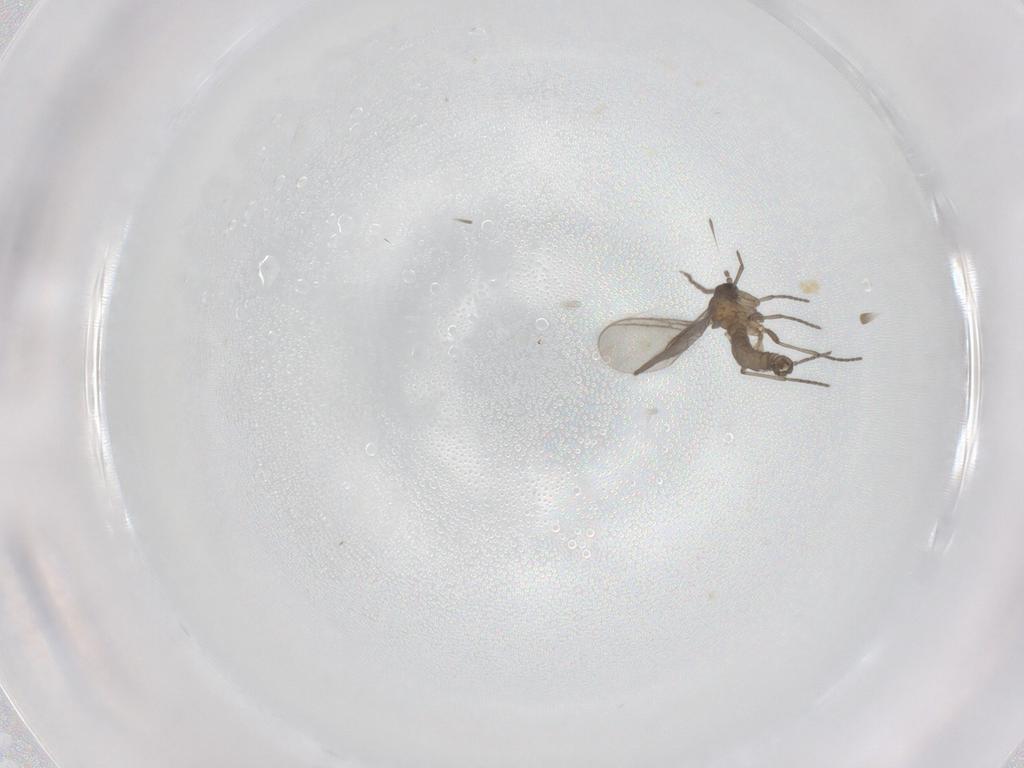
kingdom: Animalia
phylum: Arthropoda
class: Insecta
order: Diptera
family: Phoridae
